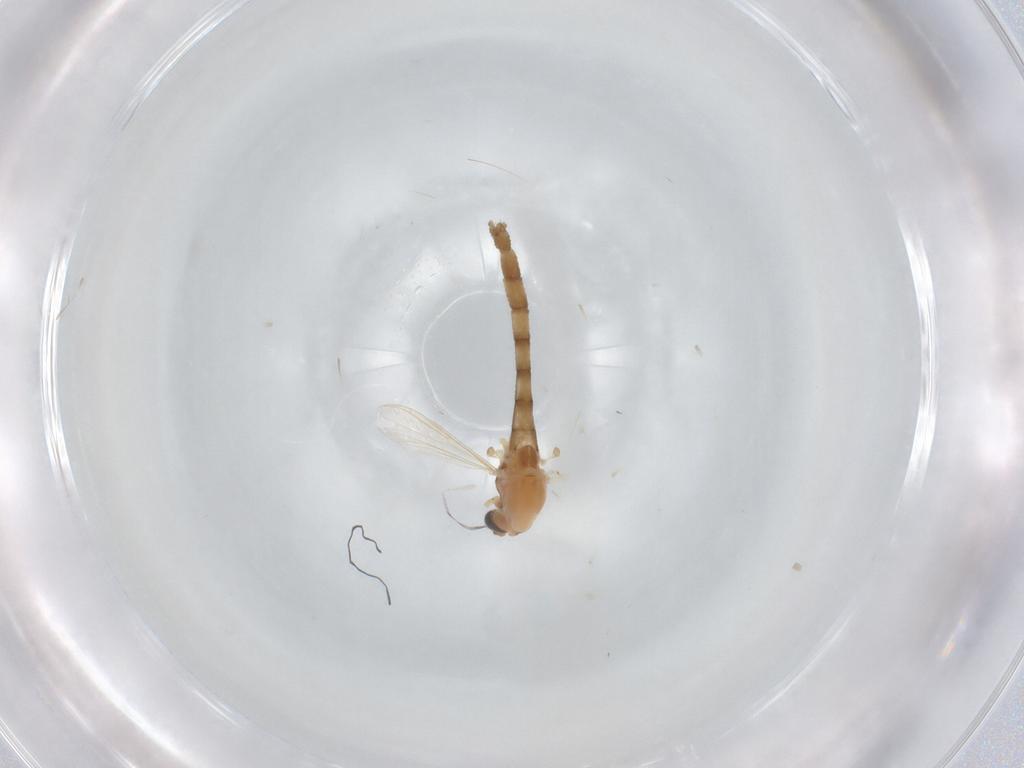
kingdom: Animalia
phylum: Arthropoda
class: Insecta
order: Diptera
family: Chironomidae
